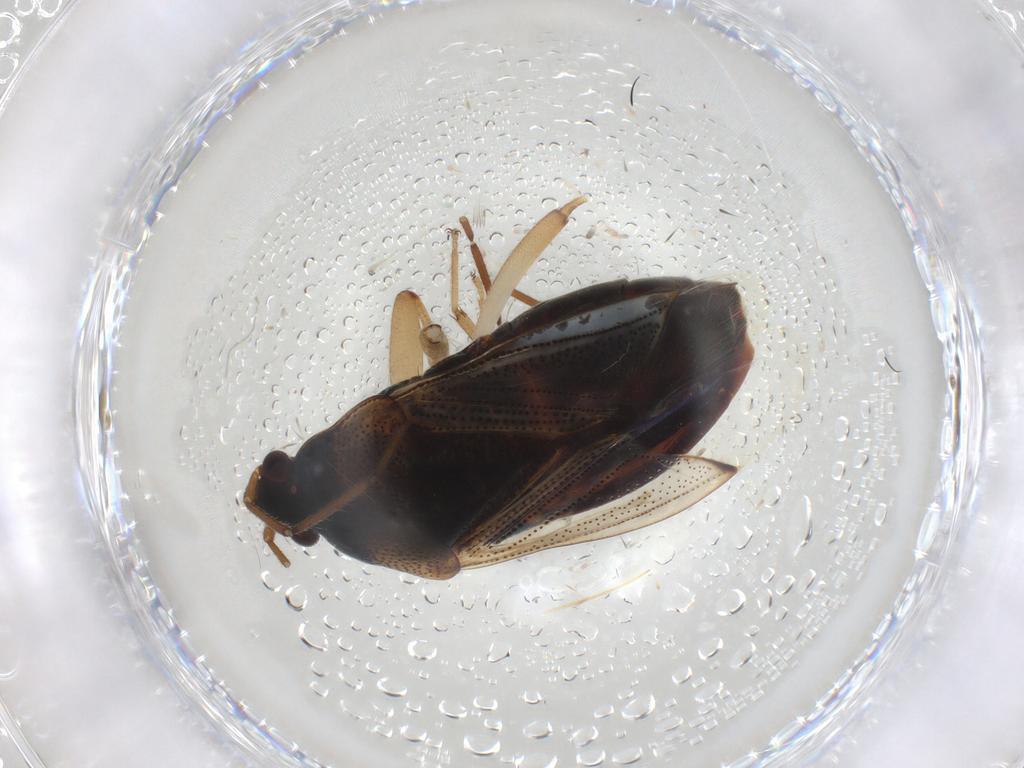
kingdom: Animalia
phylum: Arthropoda
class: Insecta
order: Hemiptera
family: Rhyparochromidae
